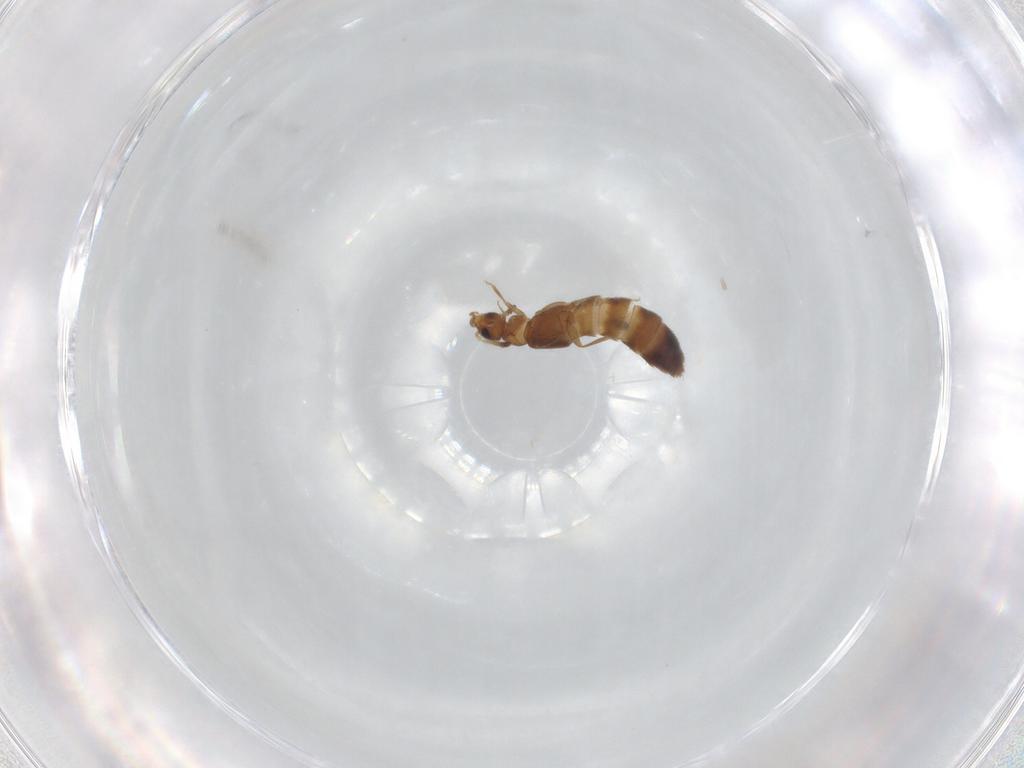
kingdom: Animalia
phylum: Arthropoda
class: Insecta
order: Coleoptera
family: Staphylinidae
